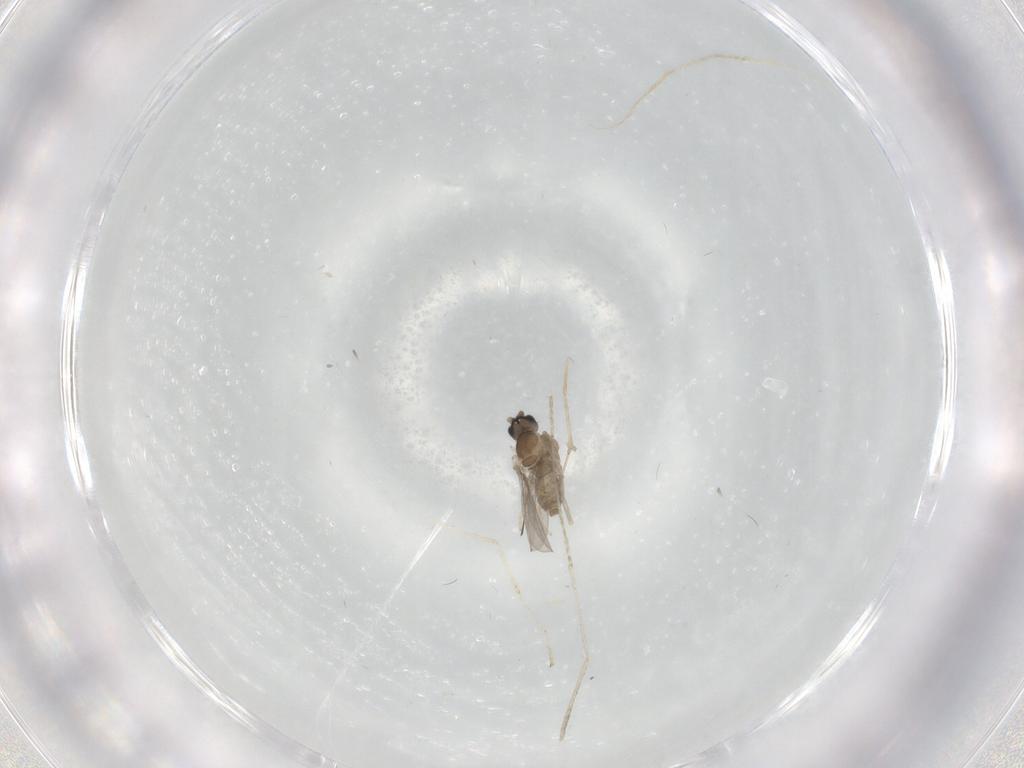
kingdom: Animalia
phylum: Arthropoda
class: Insecta
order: Diptera
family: Cecidomyiidae
